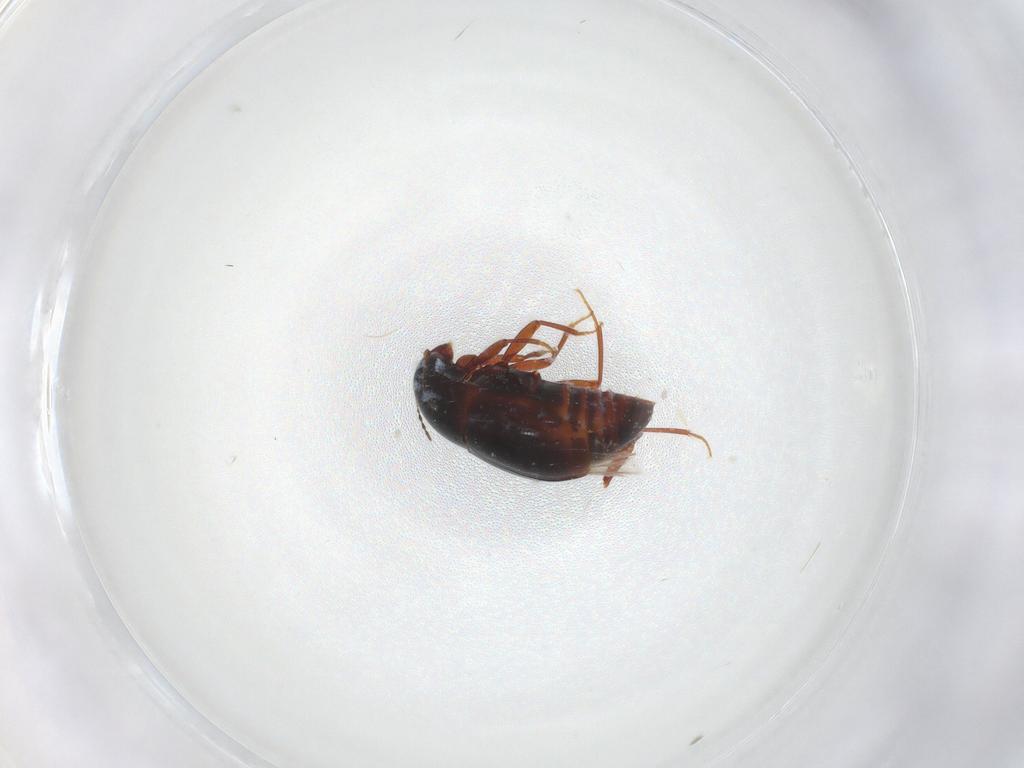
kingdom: Animalia
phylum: Arthropoda
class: Insecta
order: Coleoptera
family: Staphylinidae
